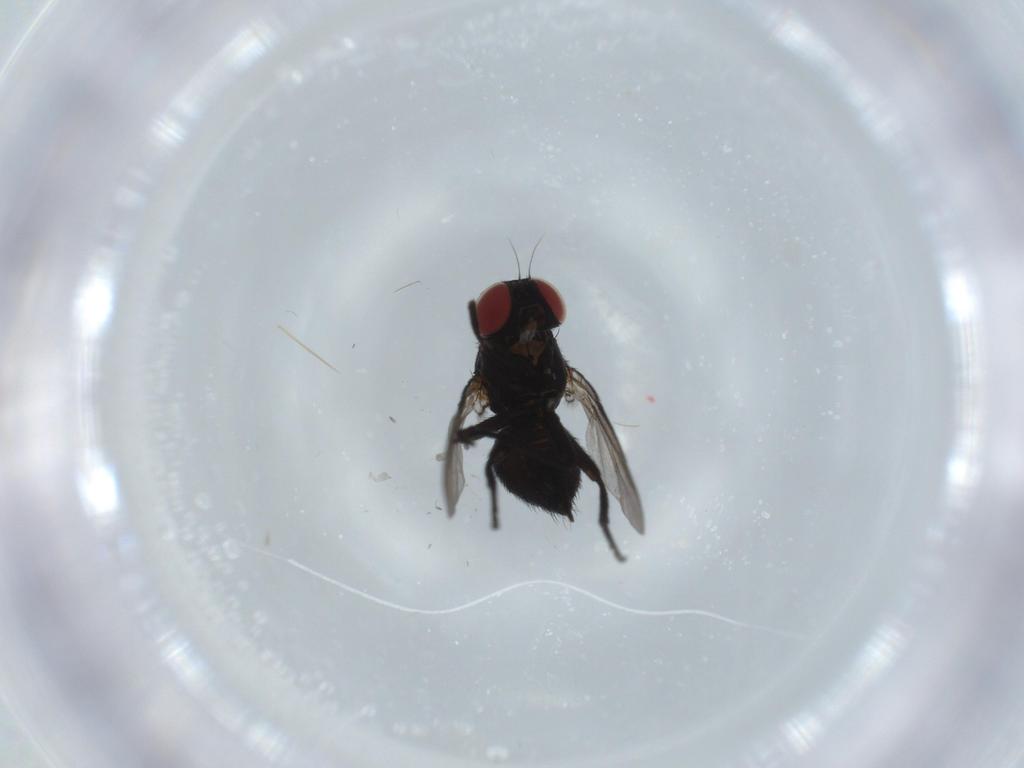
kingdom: Animalia
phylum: Arthropoda
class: Insecta
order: Diptera
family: Agromyzidae
